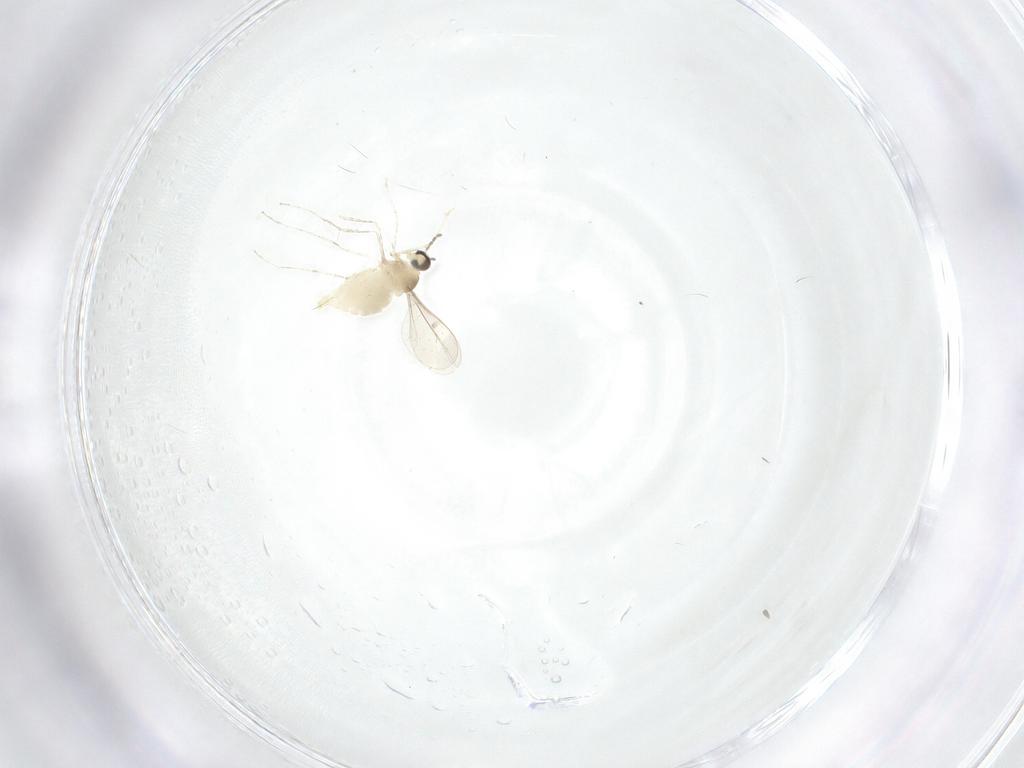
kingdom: Animalia
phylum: Arthropoda
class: Insecta
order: Diptera
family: Cecidomyiidae
